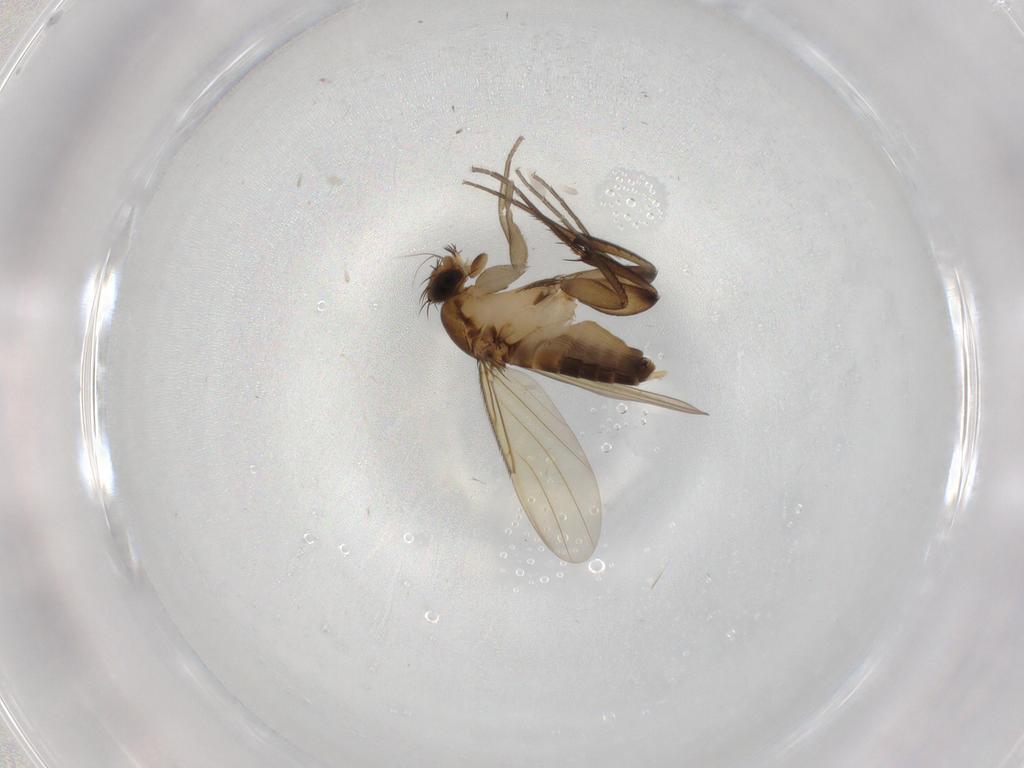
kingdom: Animalia
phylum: Arthropoda
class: Insecta
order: Diptera
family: Phoridae
